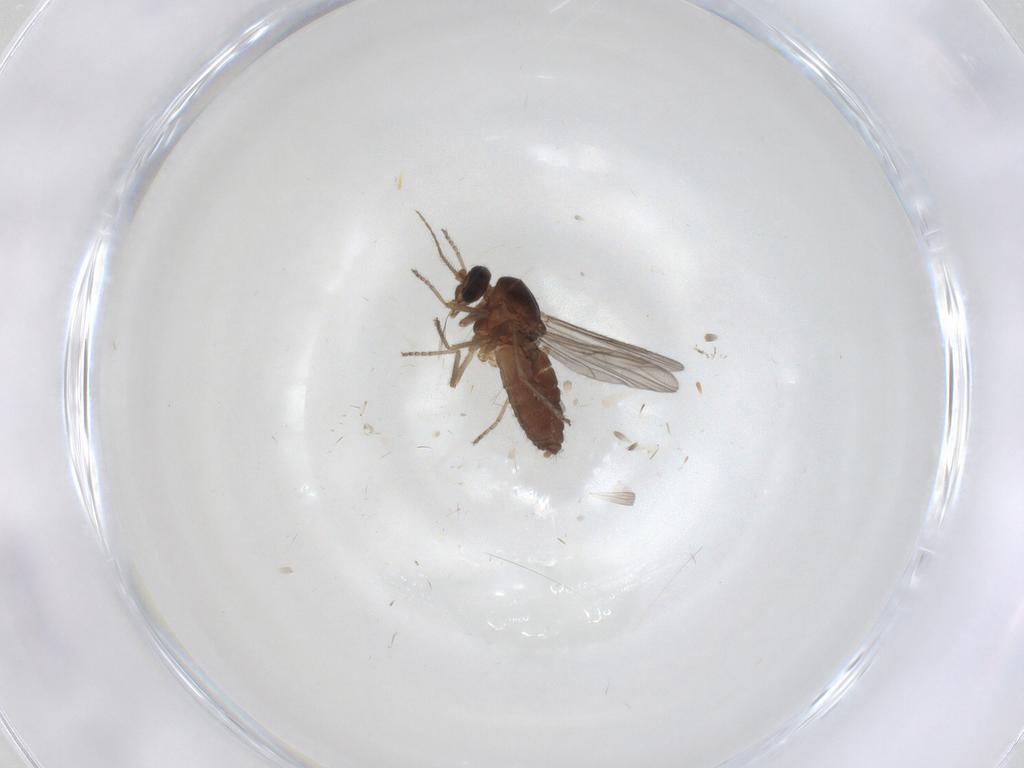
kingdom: Animalia
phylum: Arthropoda
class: Insecta
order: Diptera
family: Ceratopogonidae
